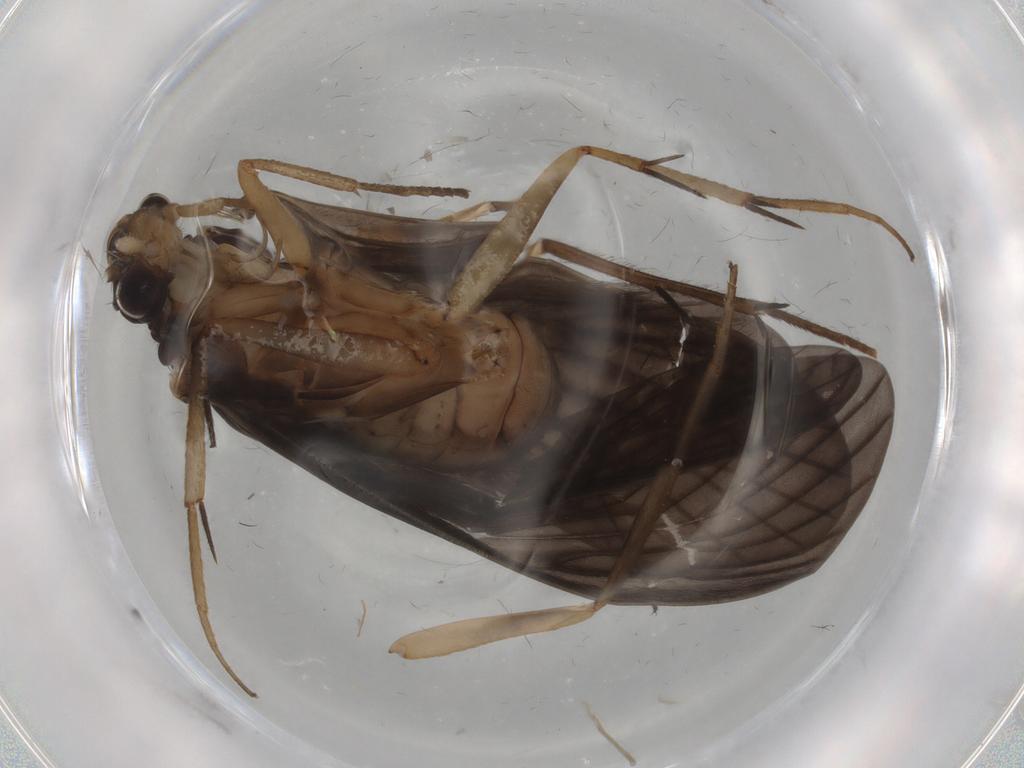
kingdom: Animalia
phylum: Arthropoda
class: Insecta
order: Trichoptera
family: Philopotamidae
